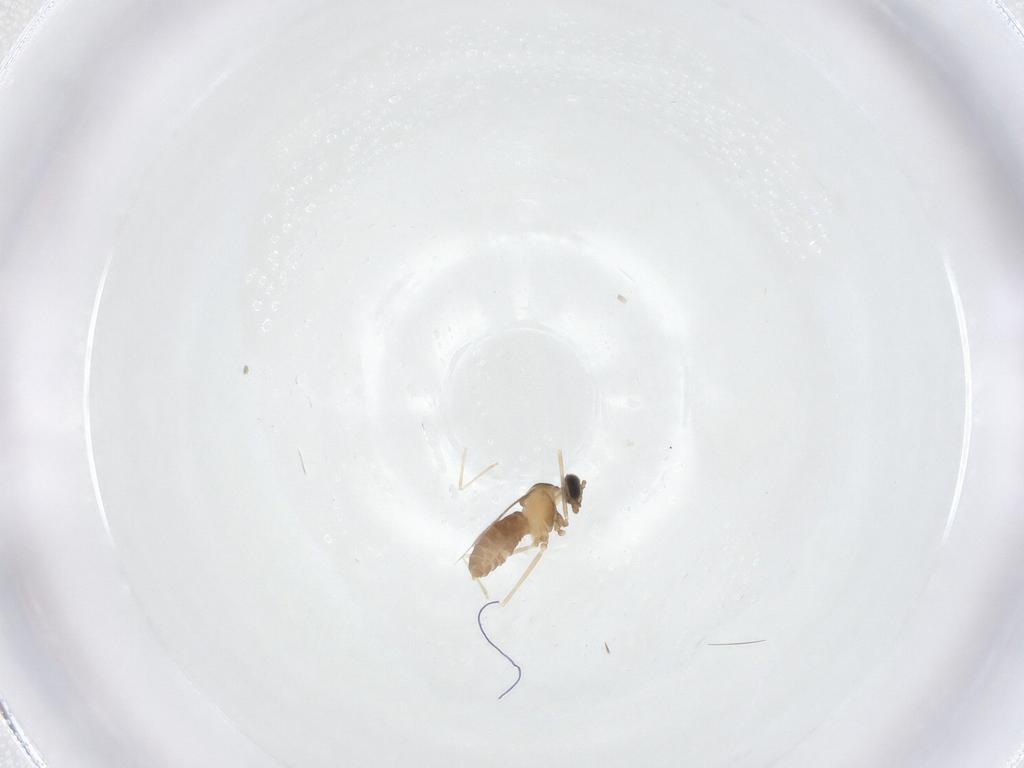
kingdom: Animalia
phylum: Arthropoda
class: Insecta
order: Diptera
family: Cecidomyiidae
